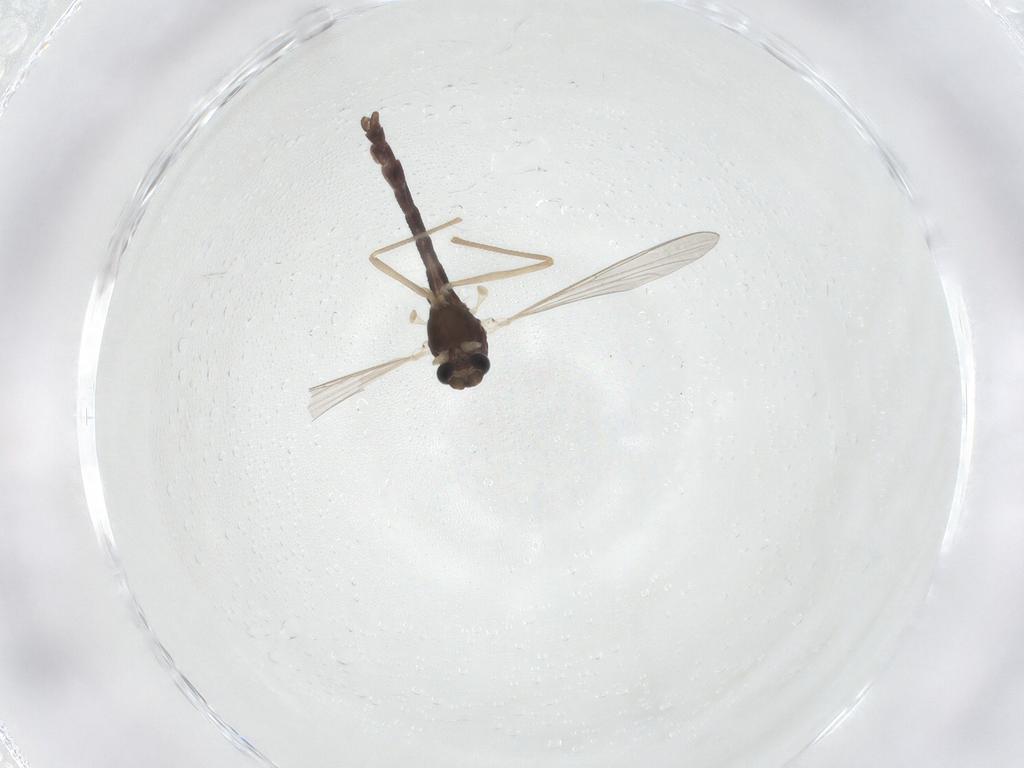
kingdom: Animalia
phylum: Arthropoda
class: Insecta
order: Diptera
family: Chironomidae
